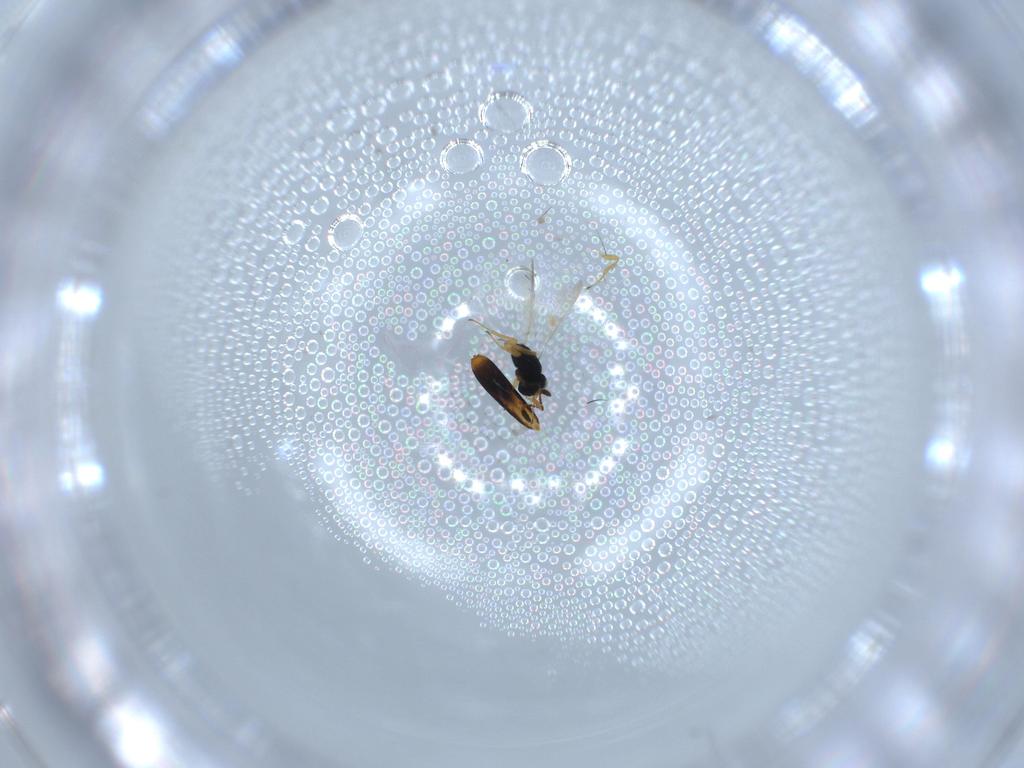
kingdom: Animalia
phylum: Arthropoda
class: Insecta
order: Hymenoptera
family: Scelionidae
